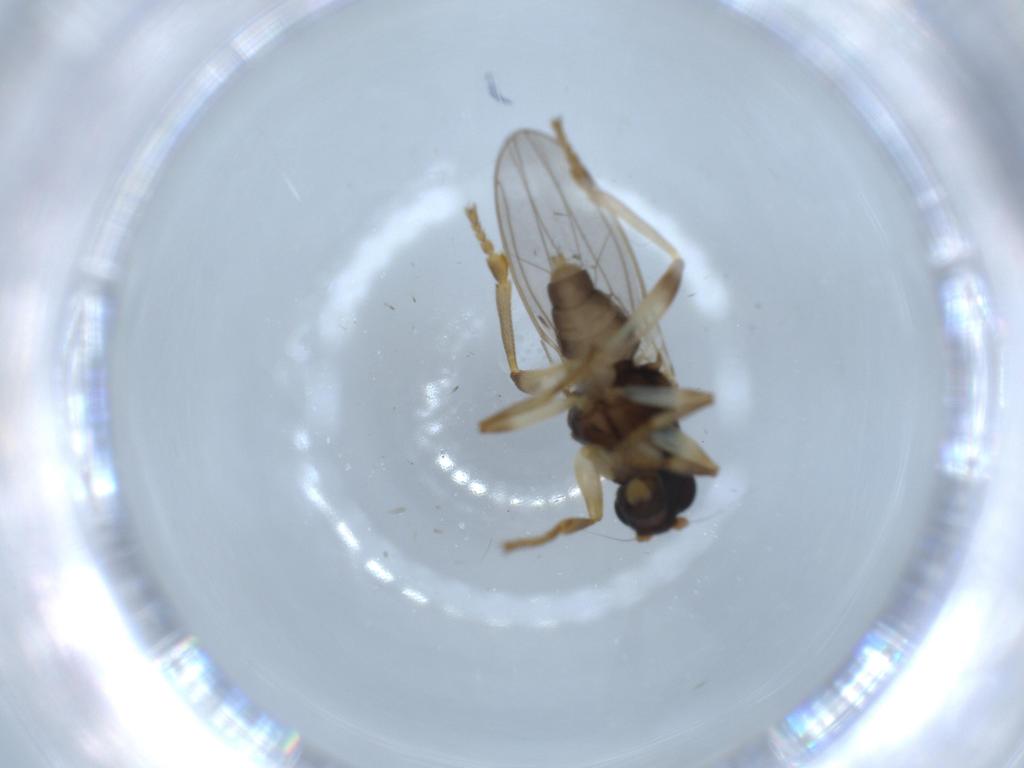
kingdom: Animalia
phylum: Arthropoda
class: Insecta
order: Diptera
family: Sphaeroceridae
